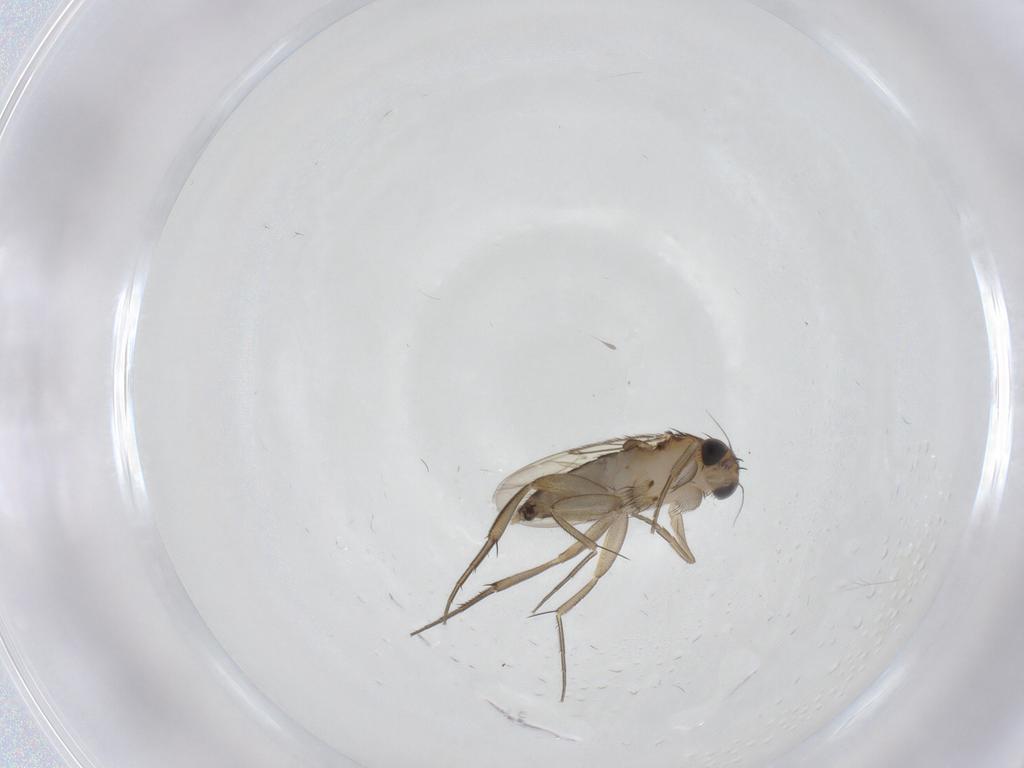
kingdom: Animalia
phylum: Arthropoda
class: Insecta
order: Diptera
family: Phoridae
